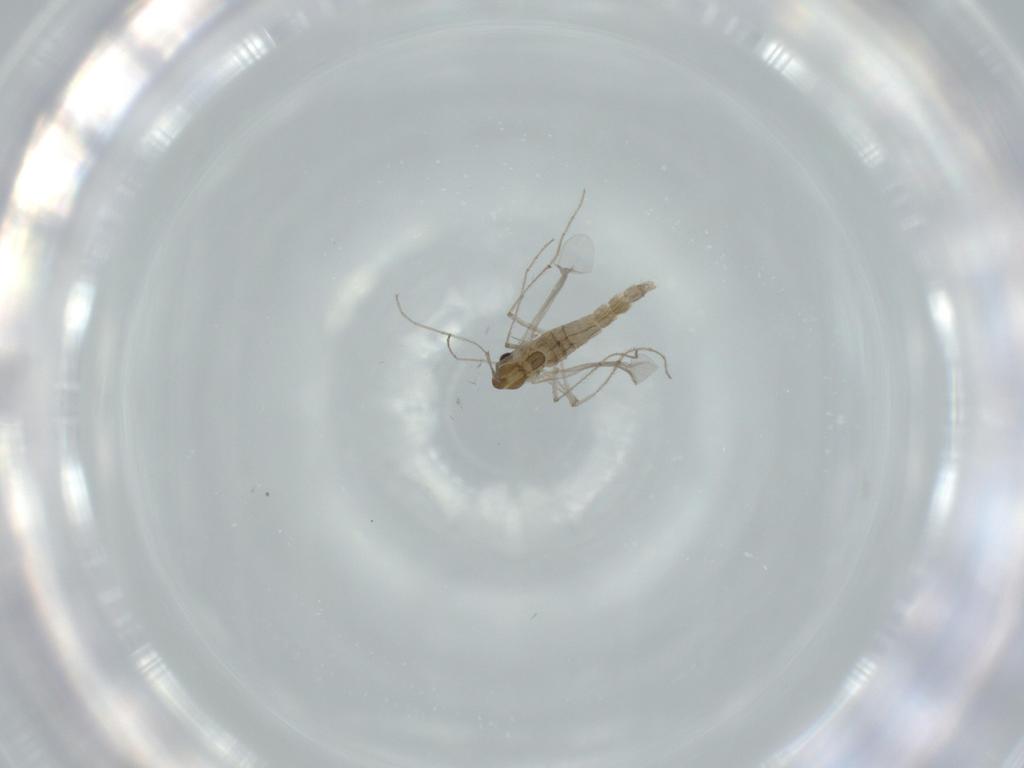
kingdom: Animalia
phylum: Arthropoda
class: Insecta
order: Diptera
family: Chironomidae
